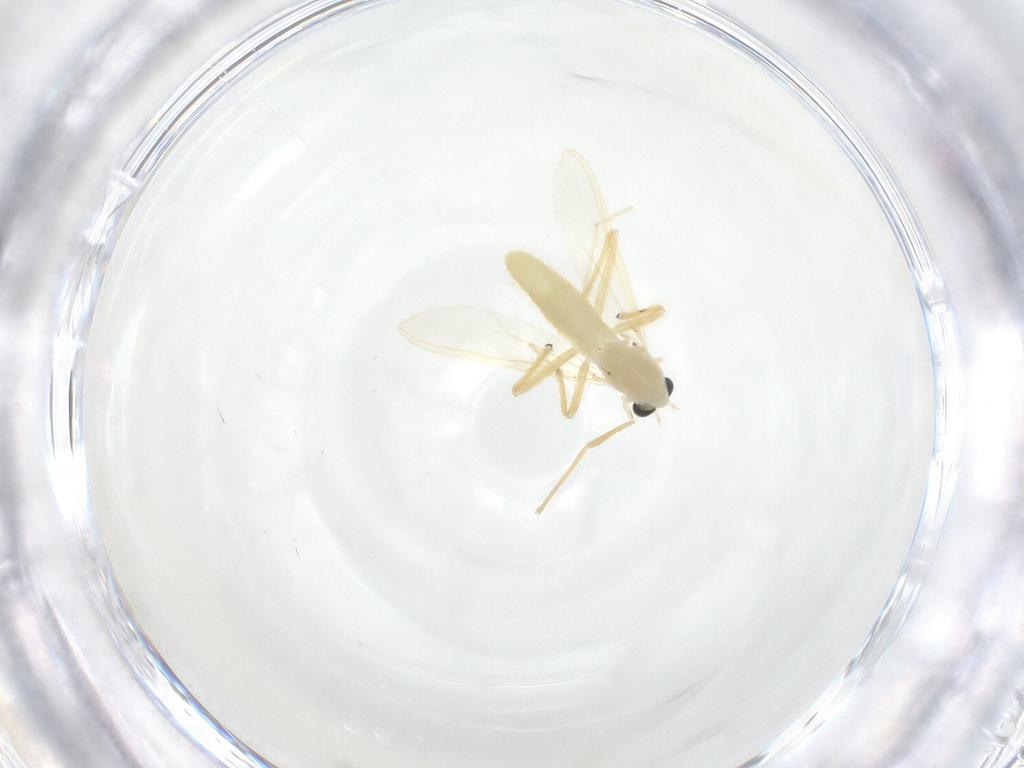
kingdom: Animalia
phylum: Arthropoda
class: Insecta
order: Diptera
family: Chironomidae
